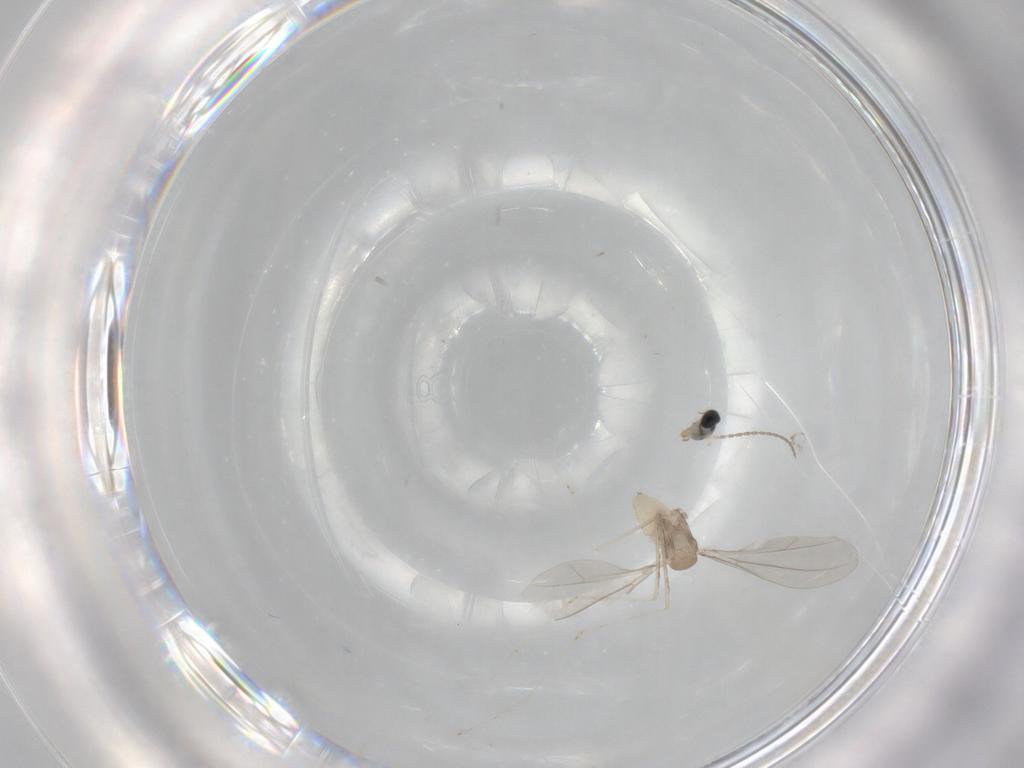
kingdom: Animalia
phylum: Arthropoda
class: Insecta
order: Diptera
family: Cecidomyiidae
